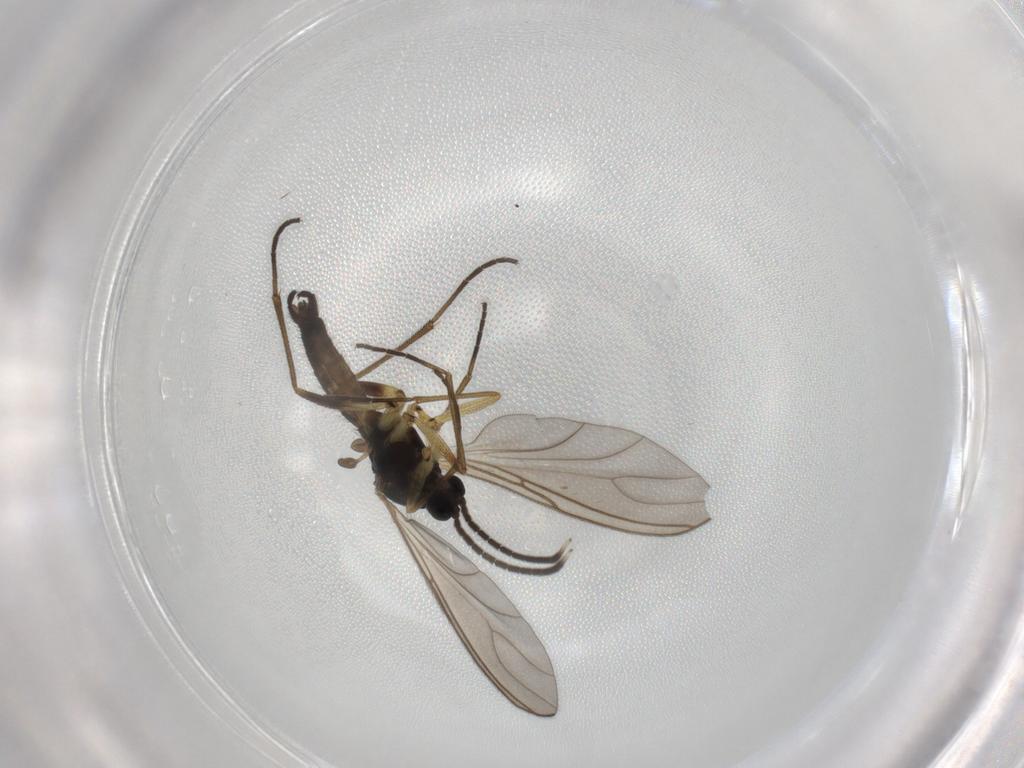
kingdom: Animalia
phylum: Arthropoda
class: Insecta
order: Diptera
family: Sciaridae
